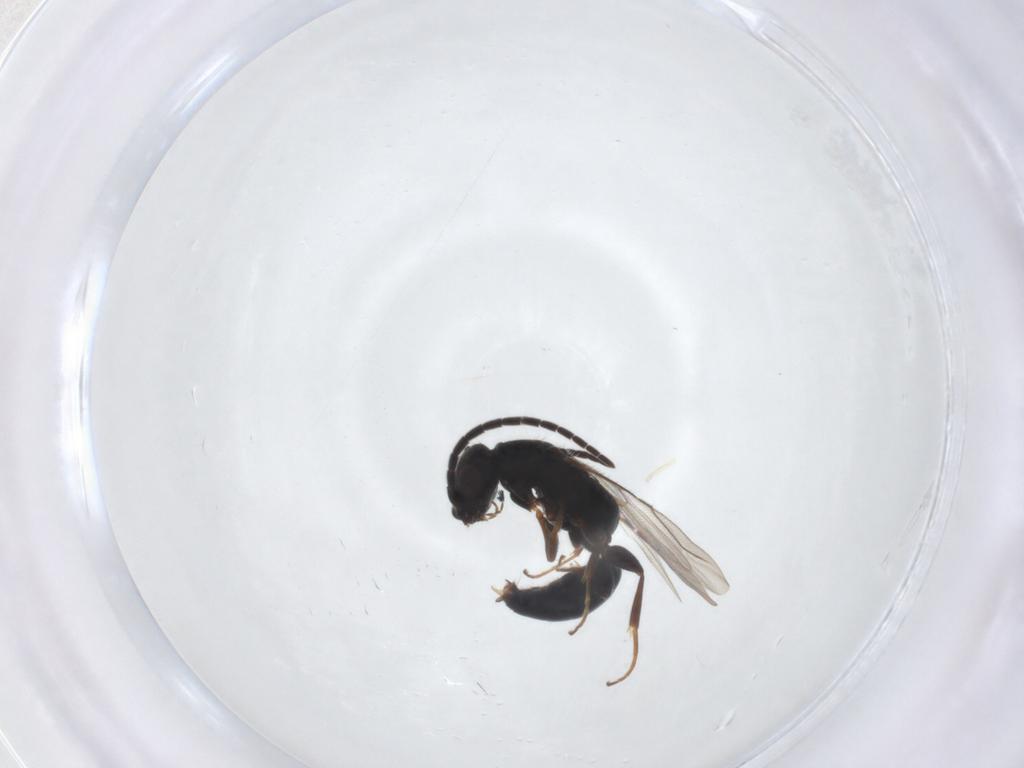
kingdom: Animalia
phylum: Arthropoda
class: Insecta
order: Hymenoptera
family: Bethylidae
